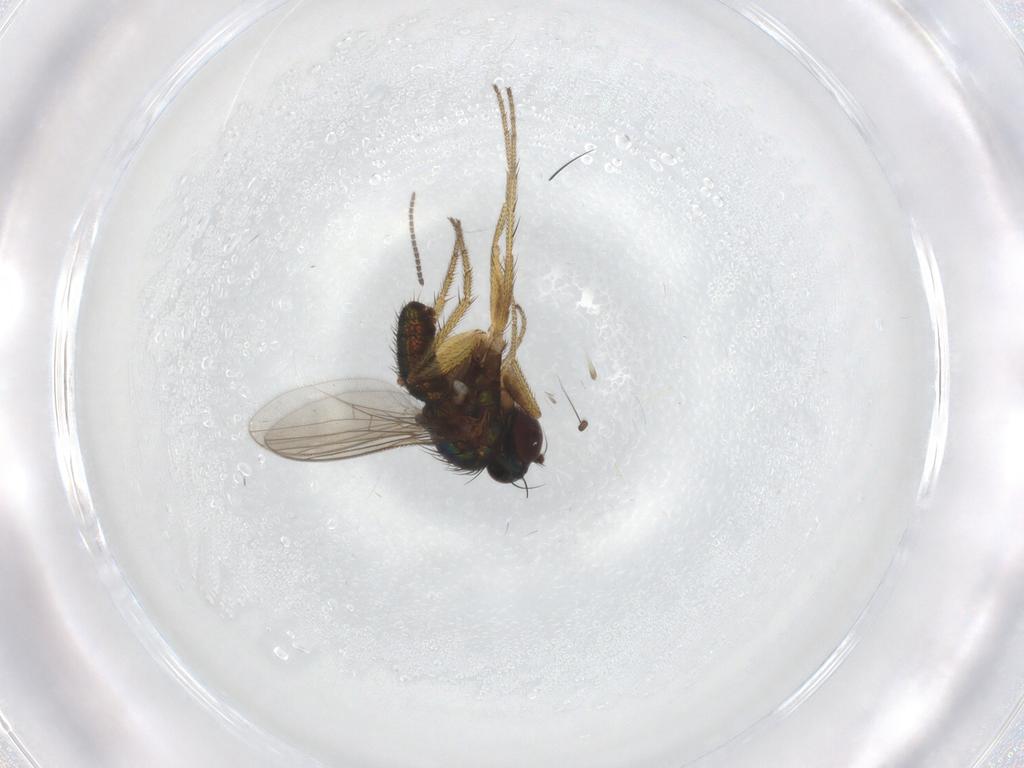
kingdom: Animalia
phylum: Arthropoda
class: Insecta
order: Diptera
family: Sciaridae
